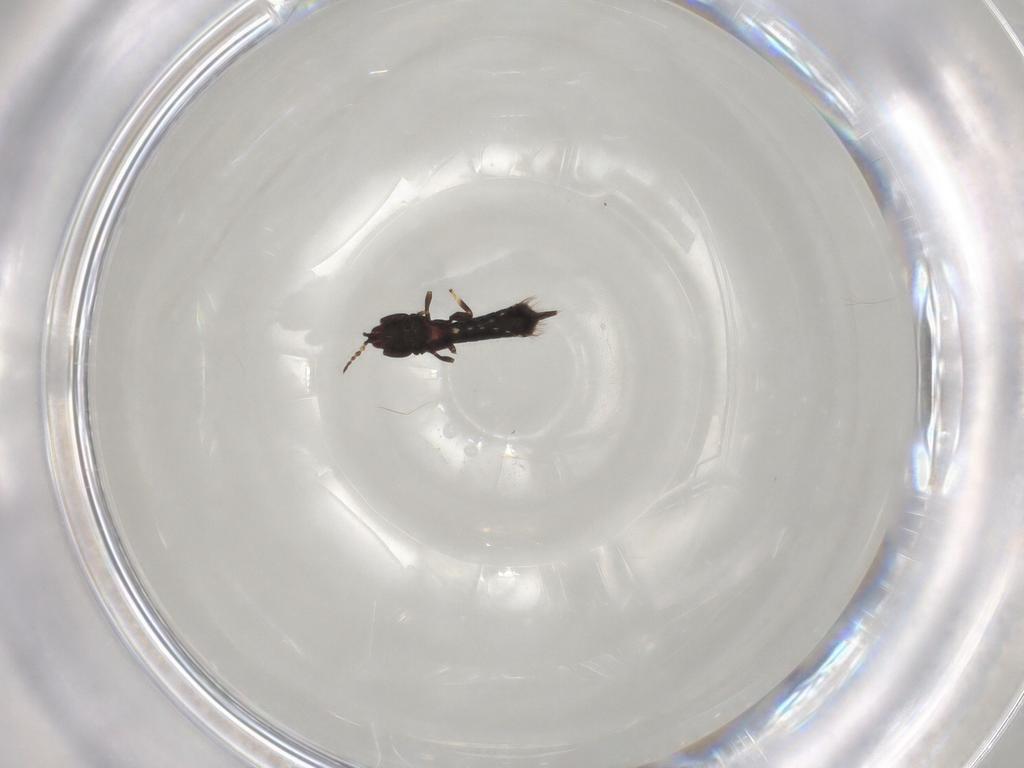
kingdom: Animalia
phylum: Arthropoda
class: Insecta
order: Thysanoptera
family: Phlaeothripidae
